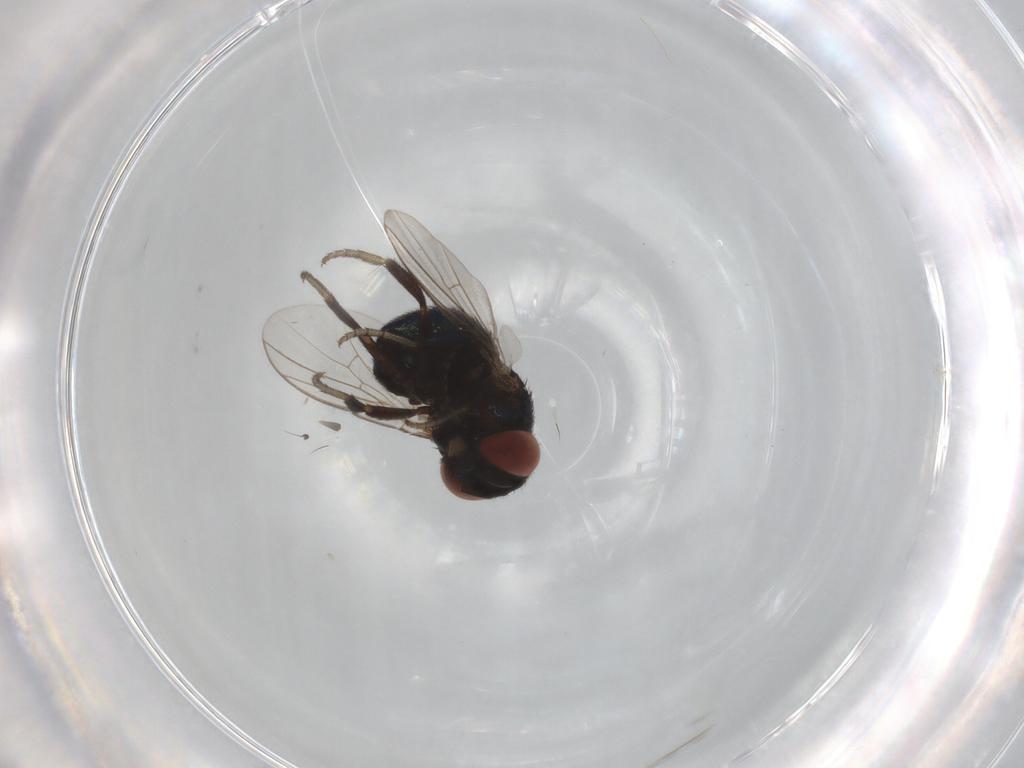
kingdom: Animalia
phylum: Arthropoda
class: Insecta
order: Diptera
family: Cryptochetidae
